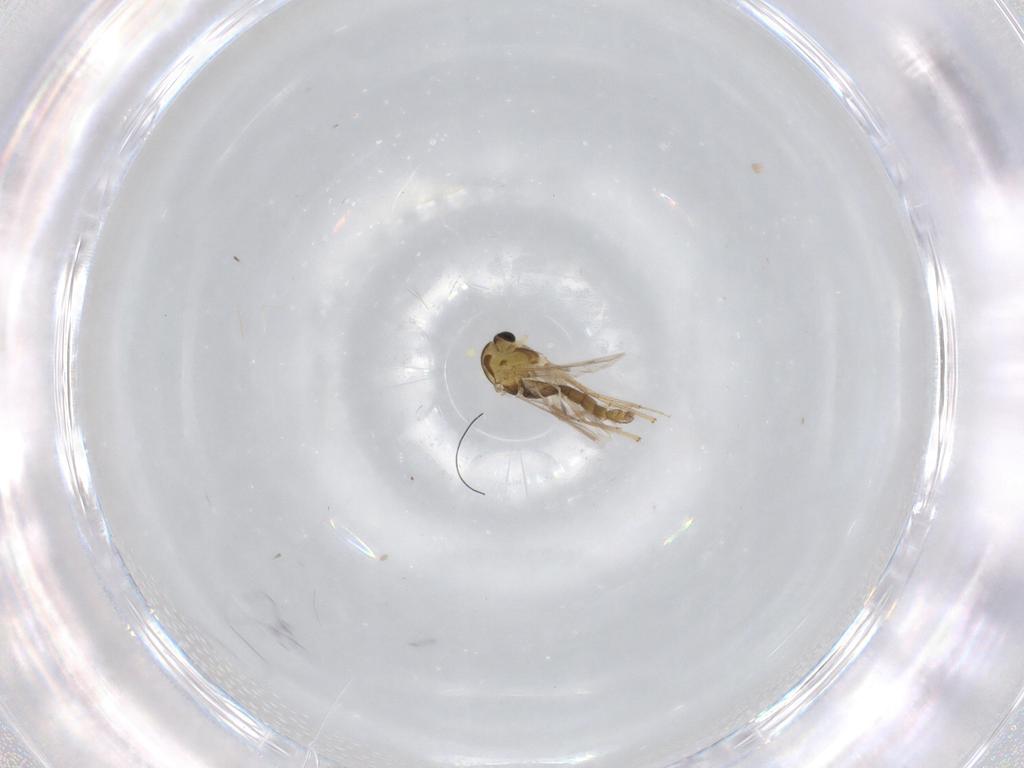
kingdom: Animalia
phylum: Arthropoda
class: Insecta
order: Diptera
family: Chironomidae
